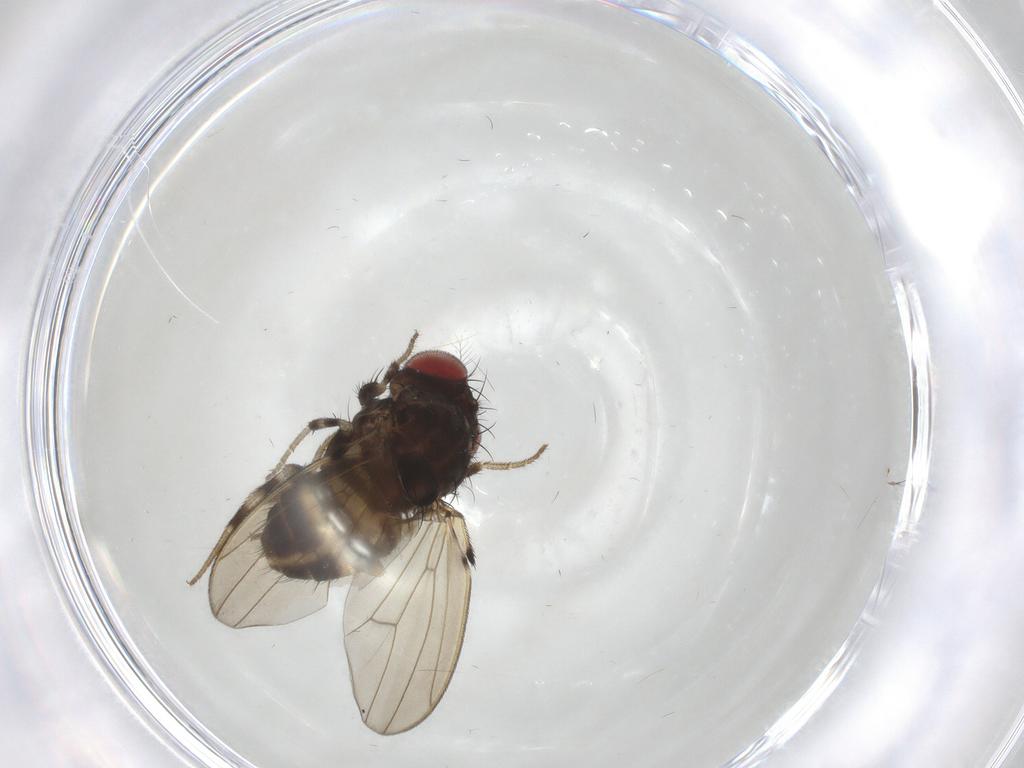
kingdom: Animalia
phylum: Arthropoda
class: Insecta
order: Diptera
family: Drosophilidae
